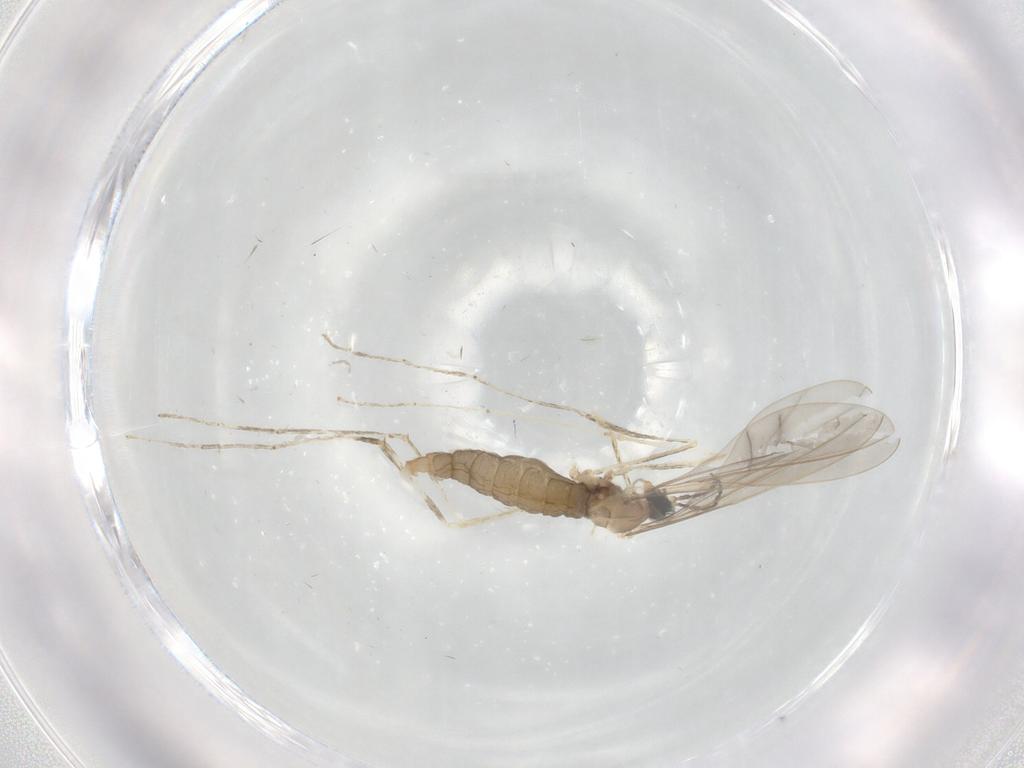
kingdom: Animalia
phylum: Arthropoda
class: Insecta
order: Diptera
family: Cecidomyiidae
